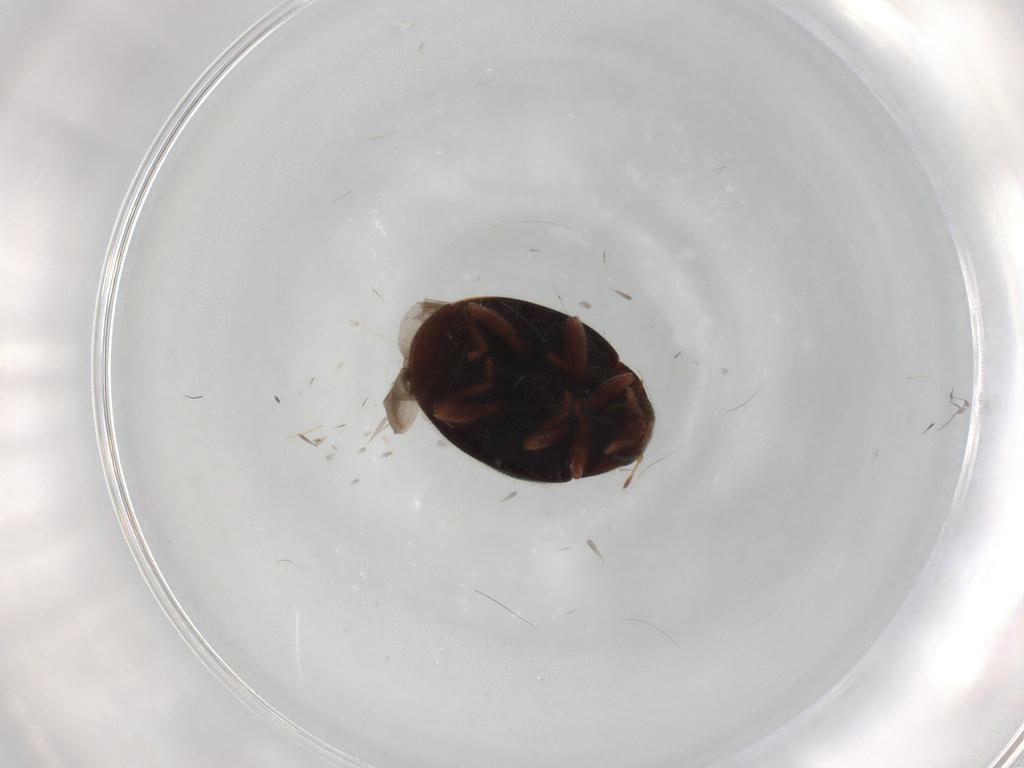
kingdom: Animalia
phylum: Arthropoda
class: Insecta
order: Coleoptera
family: Coccinellidae
